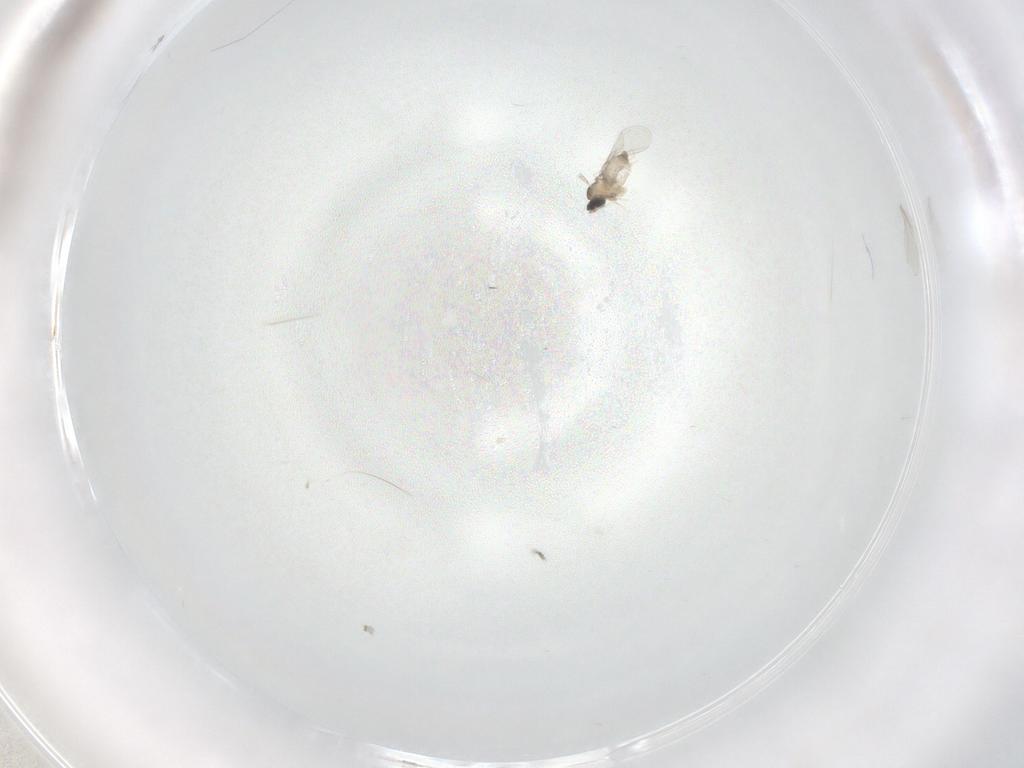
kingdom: Animalia
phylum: Arthropoda
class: Insecta
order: Diptera
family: Cecidomyiidae
